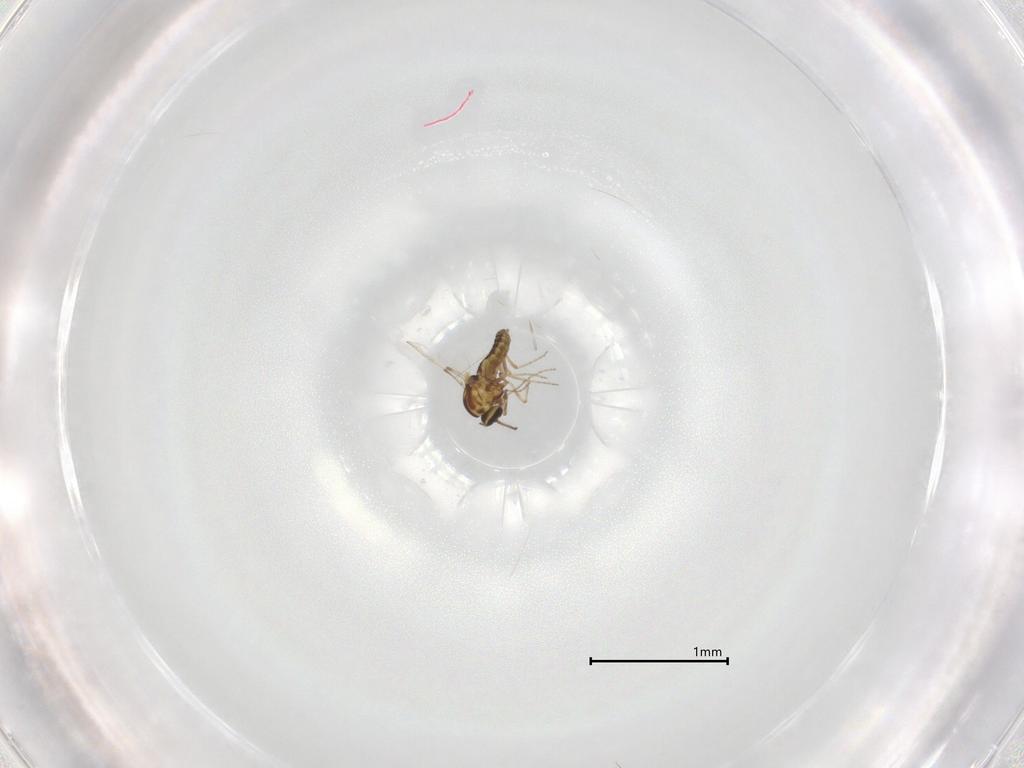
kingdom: Animalia
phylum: Arthropoda
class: Insecta
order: Diptera
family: Ceratopogonidae
